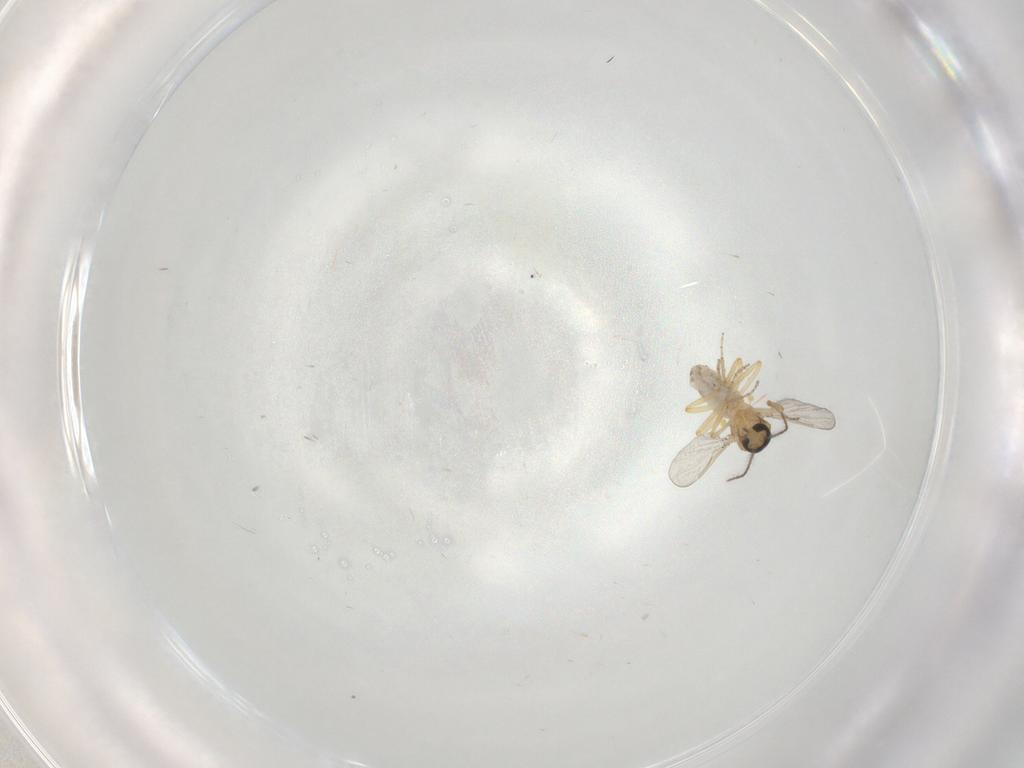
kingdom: Animalia
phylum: Arthropoda
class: Insecta
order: Diptera
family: Ceratopogonidae
